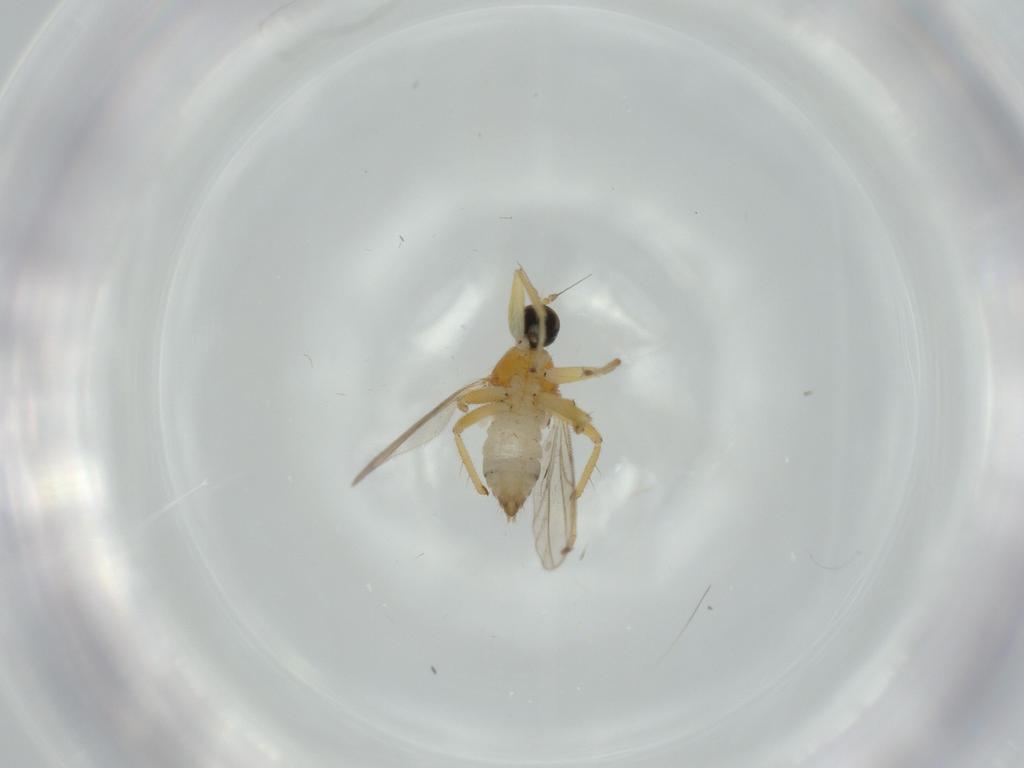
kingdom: Animalia
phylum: Arthropoda
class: Insecta
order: Diptera
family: Hybotidae
